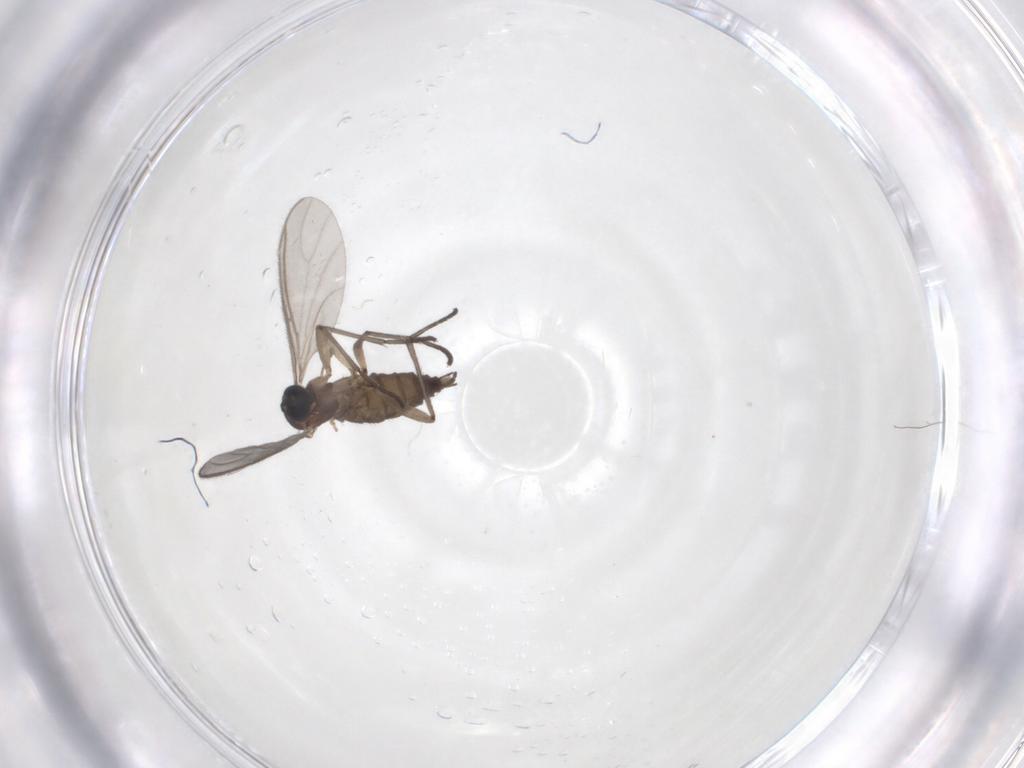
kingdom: Animalia
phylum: Arthropoda
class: Insecta
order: Diptera
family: Sciaridae
